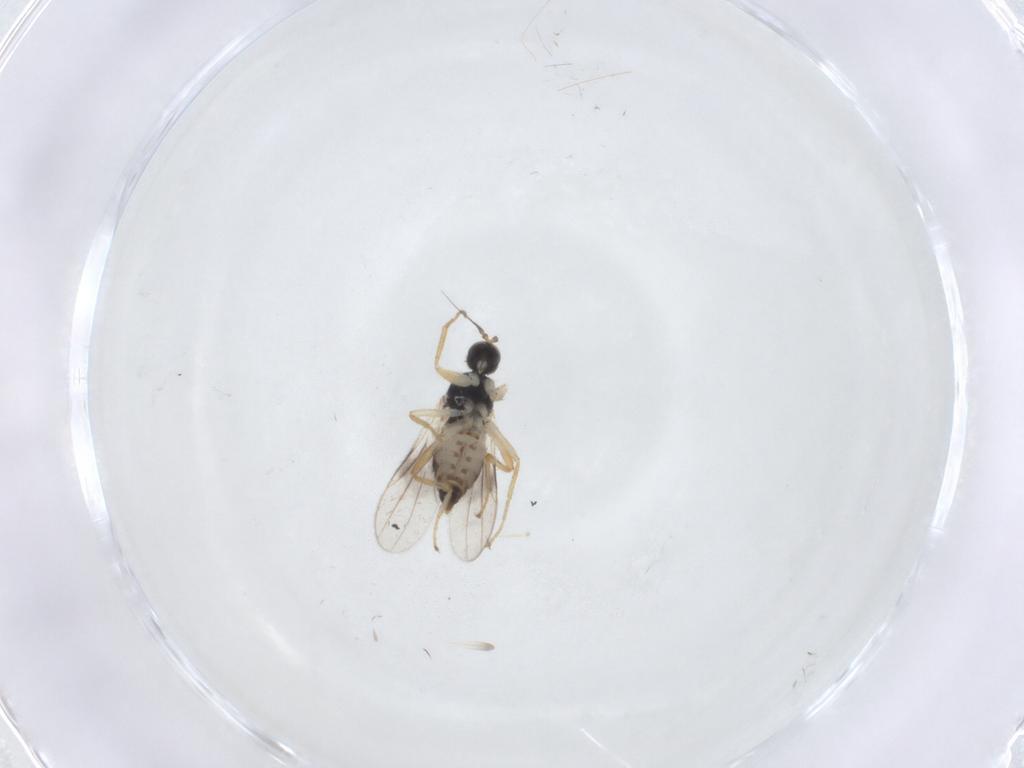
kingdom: Animalia
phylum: Arthropoda
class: Insecta
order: Diptera
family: Hybotidae
